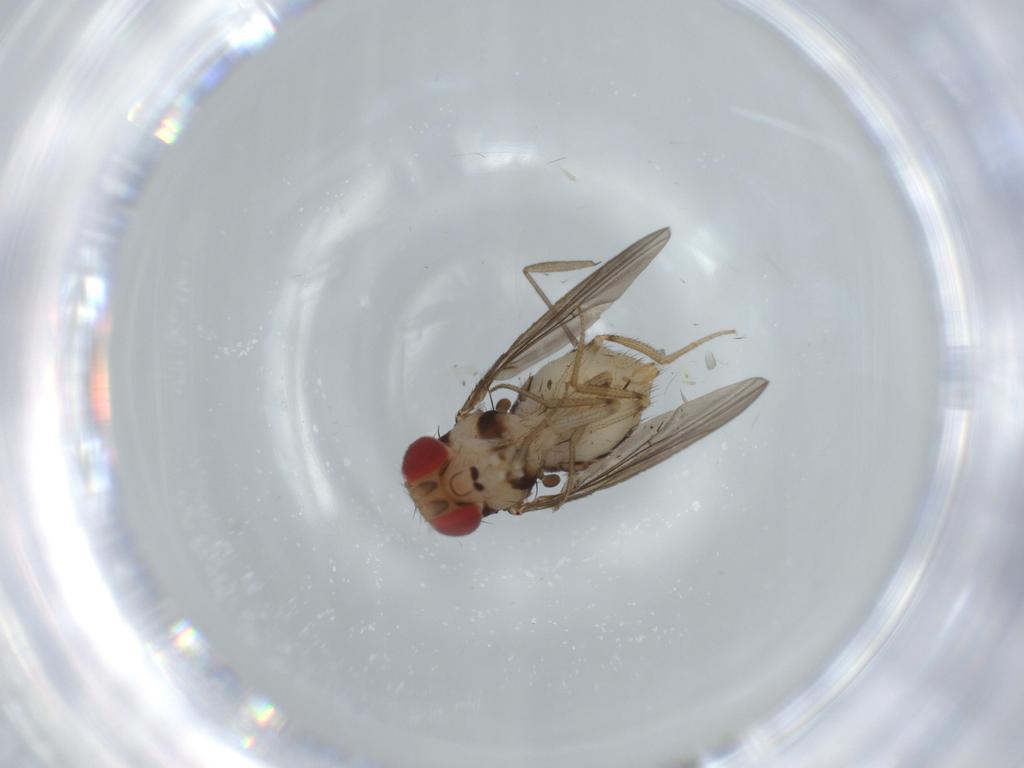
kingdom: Animalia
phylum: Arthropoda
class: Insecta
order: Diptera
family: Drosophilidae
